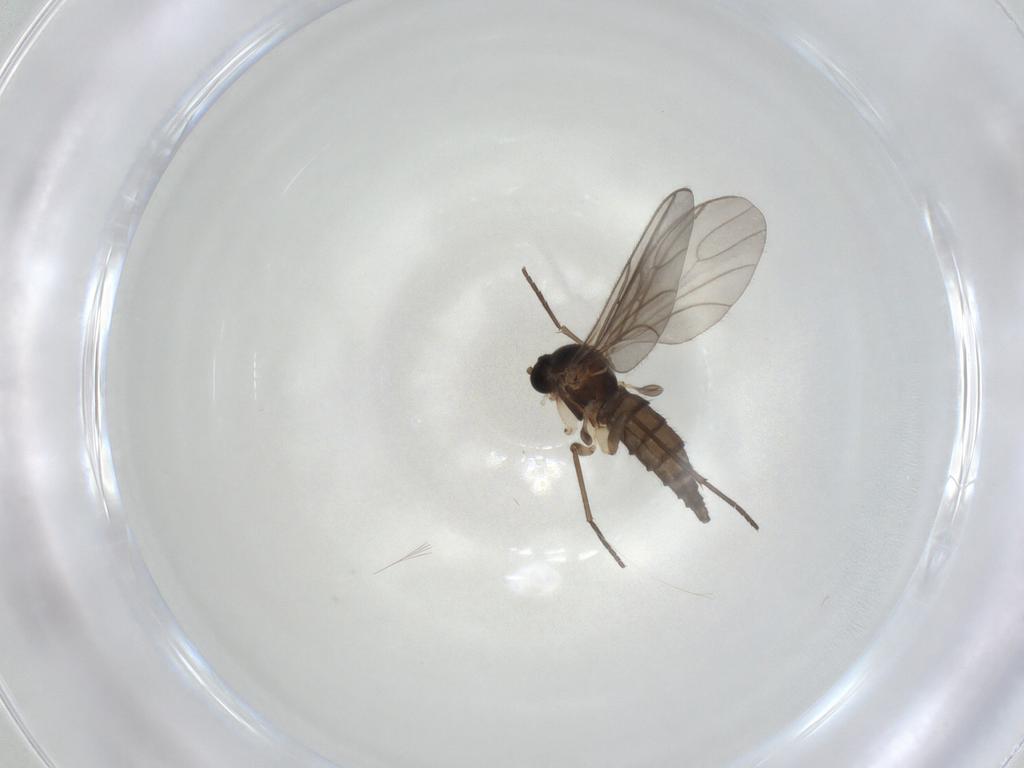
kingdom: Animalia
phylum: Arthropoda
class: Insecta
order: Diptera
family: Sciaridae
